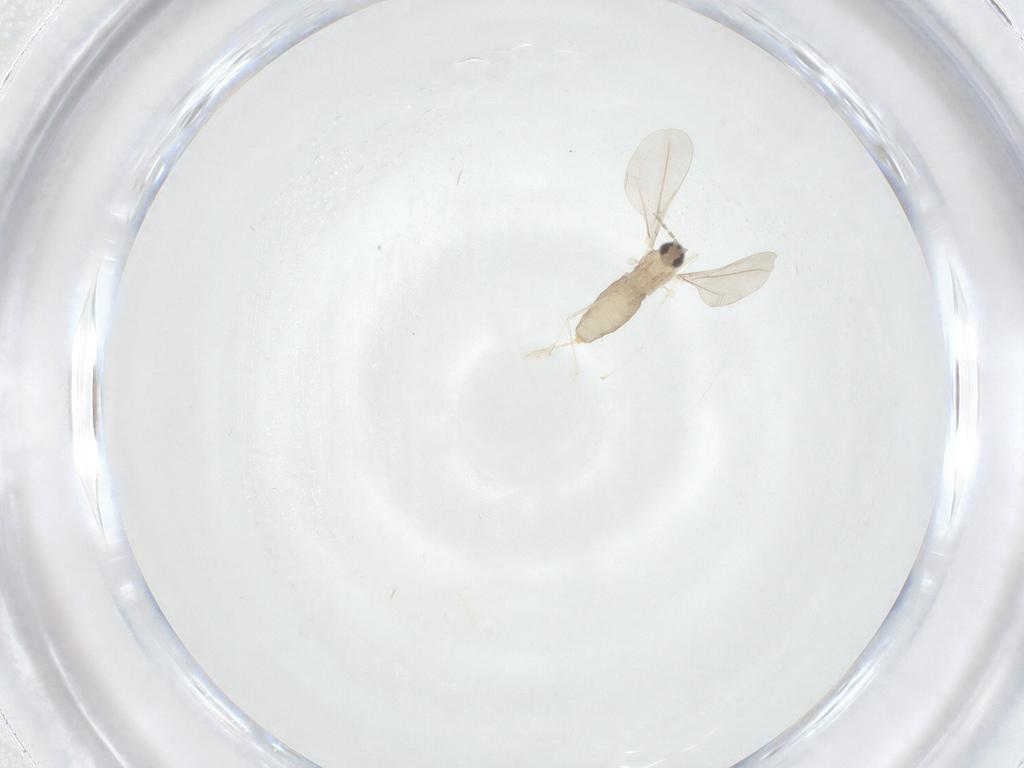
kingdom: Animalia
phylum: Arthropoda
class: Insecta
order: Diptera
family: Cecidomyiidae
